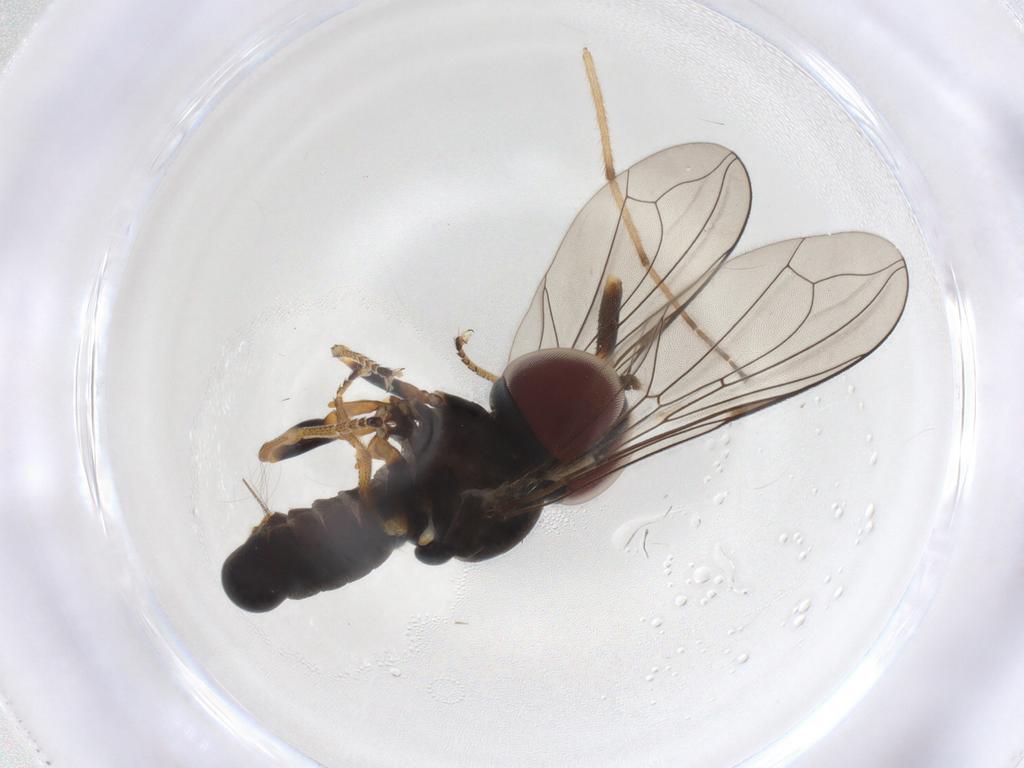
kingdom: Animalia
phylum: Arthropoda
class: Insecta
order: Diptera
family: Pipunculidae
